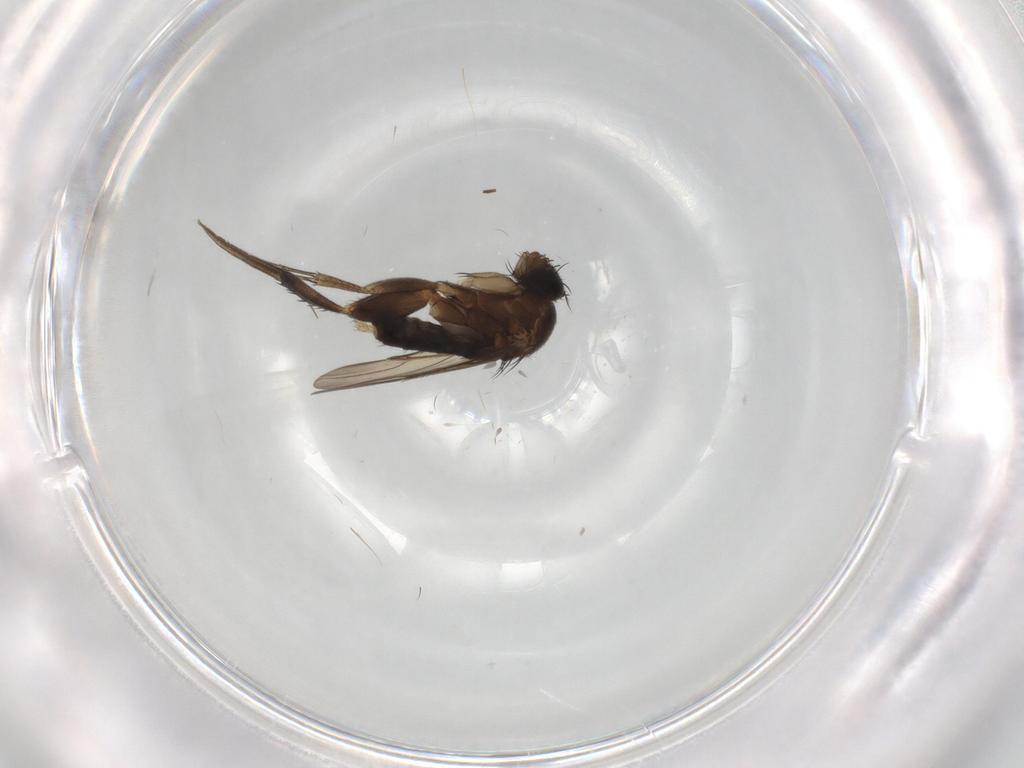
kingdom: Animalia
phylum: Arthropoda
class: Insecta
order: Diptera
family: Phoridae
